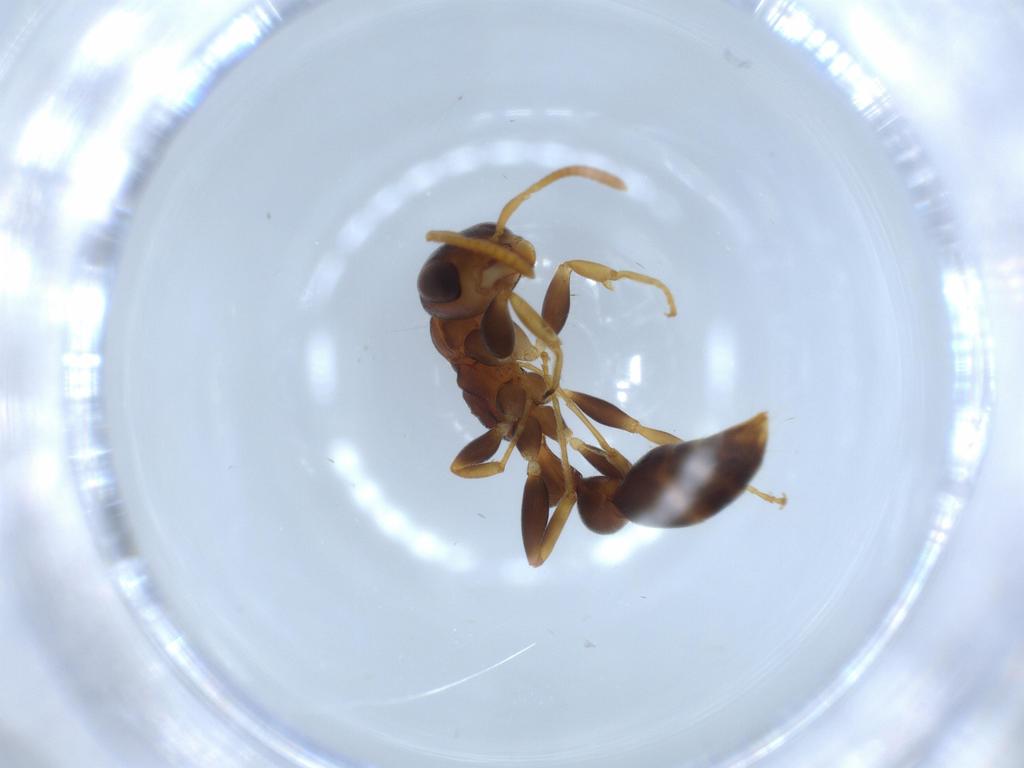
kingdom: Animalia
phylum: Arthropoda
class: Insecta
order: Hymenoptera
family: Formicidae
